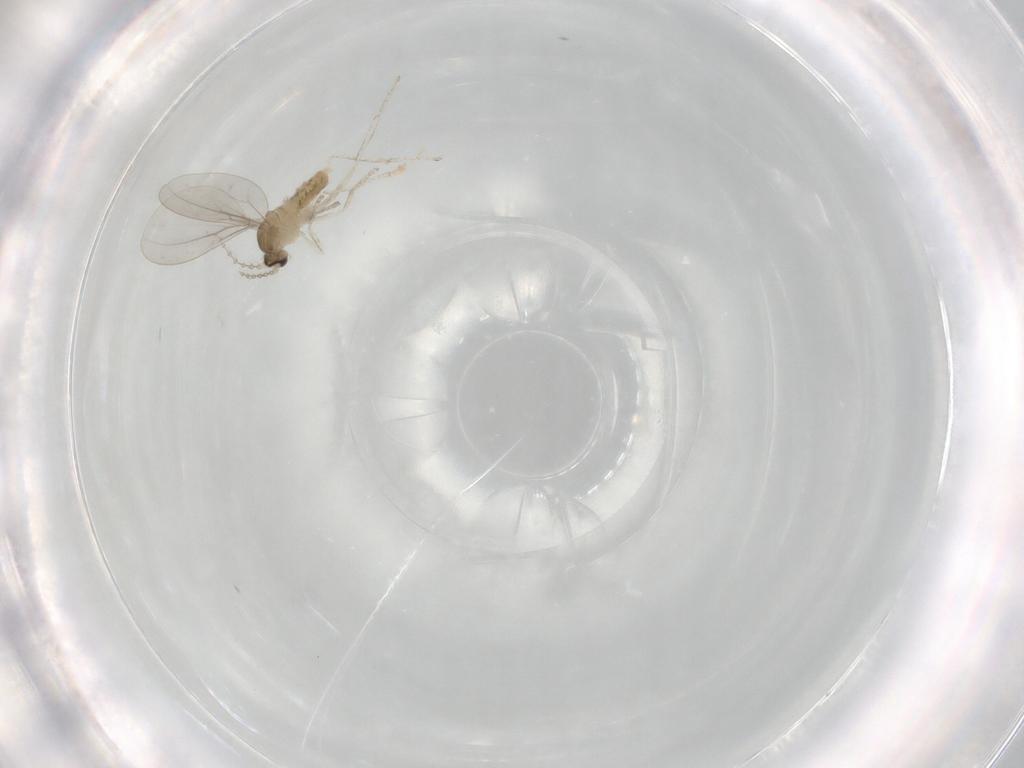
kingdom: Animalia
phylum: Arthropoda
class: Insecta
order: Diptera
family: Cecidomyiidae
